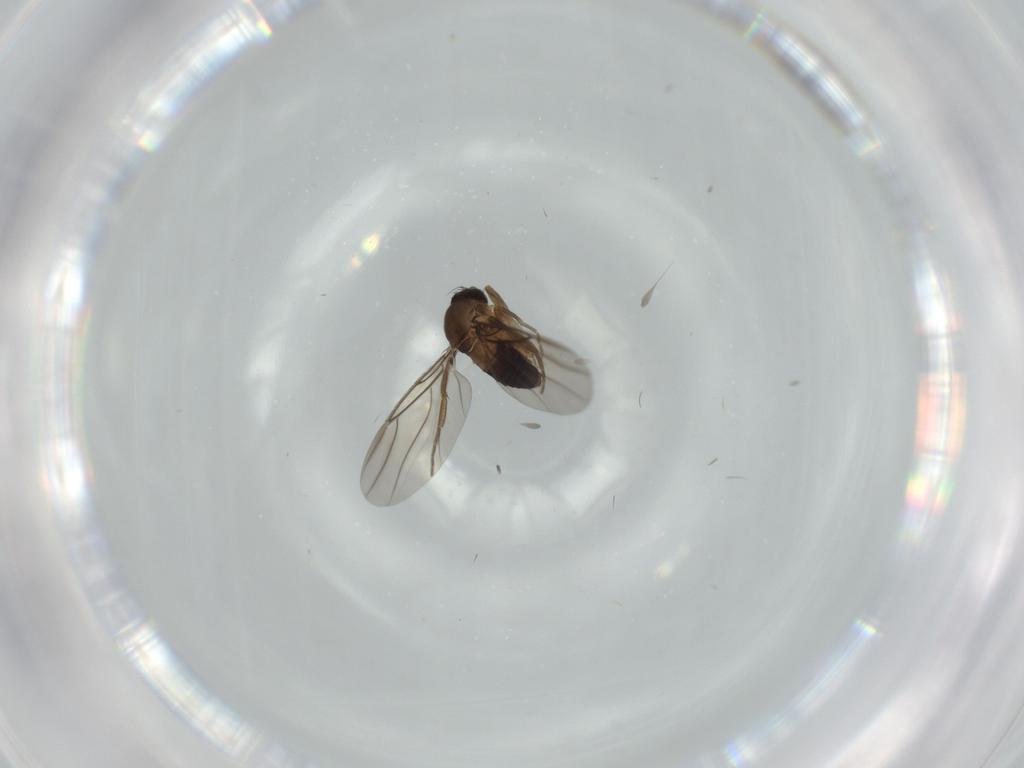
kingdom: Animalia
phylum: Arthropoda
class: Insecta
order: Diptera
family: Phoridae
